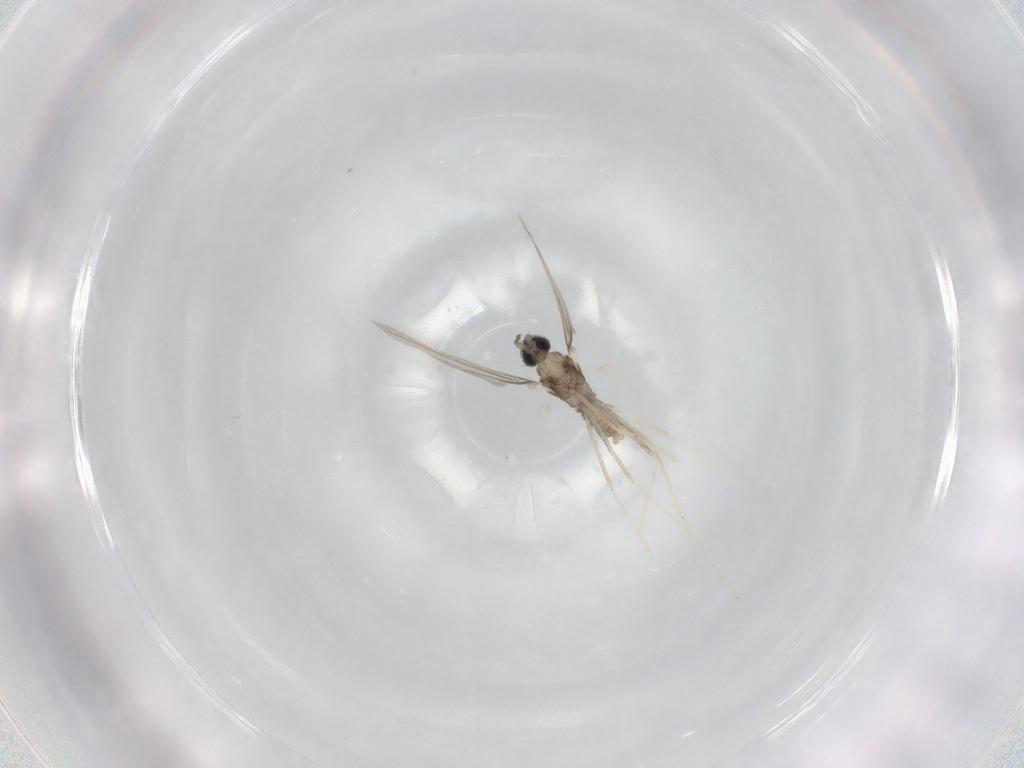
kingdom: Animalia
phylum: Arthropoda
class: Insecta
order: Diptera
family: Cecidomyiidae
